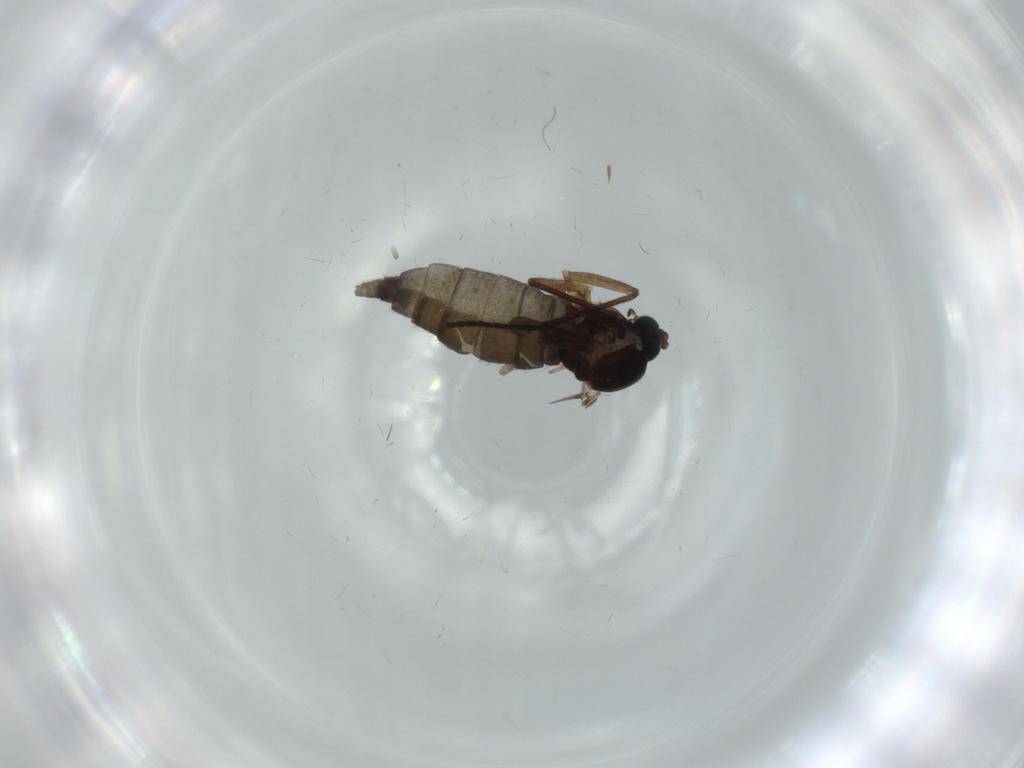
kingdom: Animalia
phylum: Arthropoda
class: Insecta
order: Diptera
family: Sciaridae
